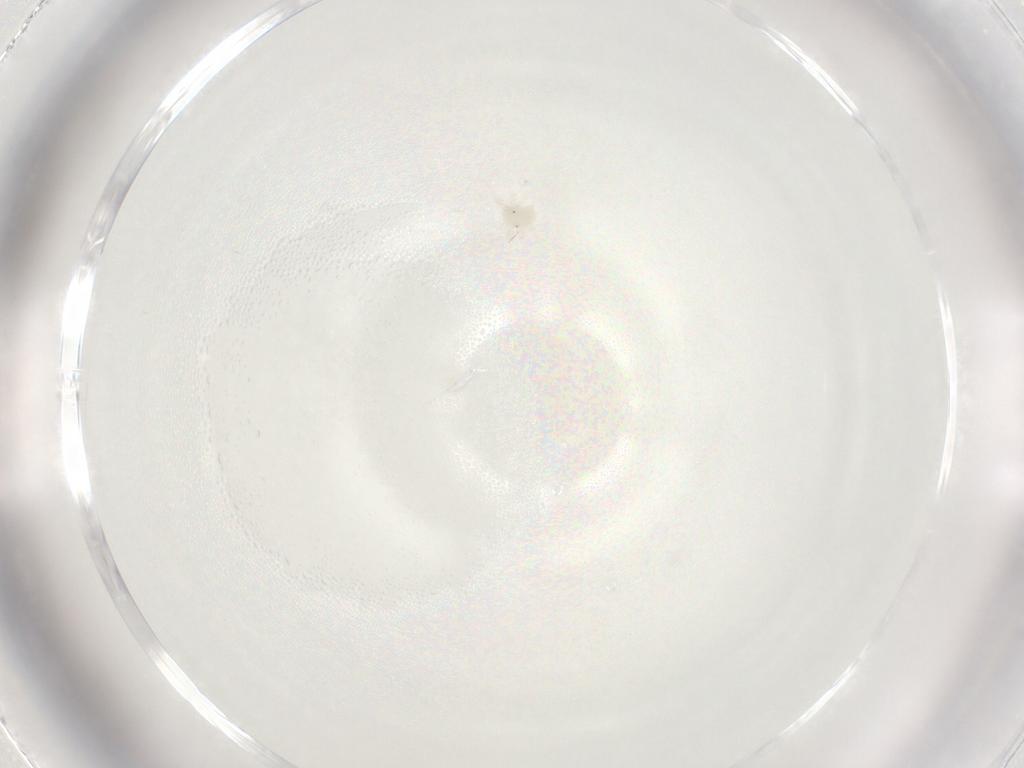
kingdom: Animalia
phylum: Arthropoda
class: Arachnida
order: Trombidiformes
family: Anystidae
